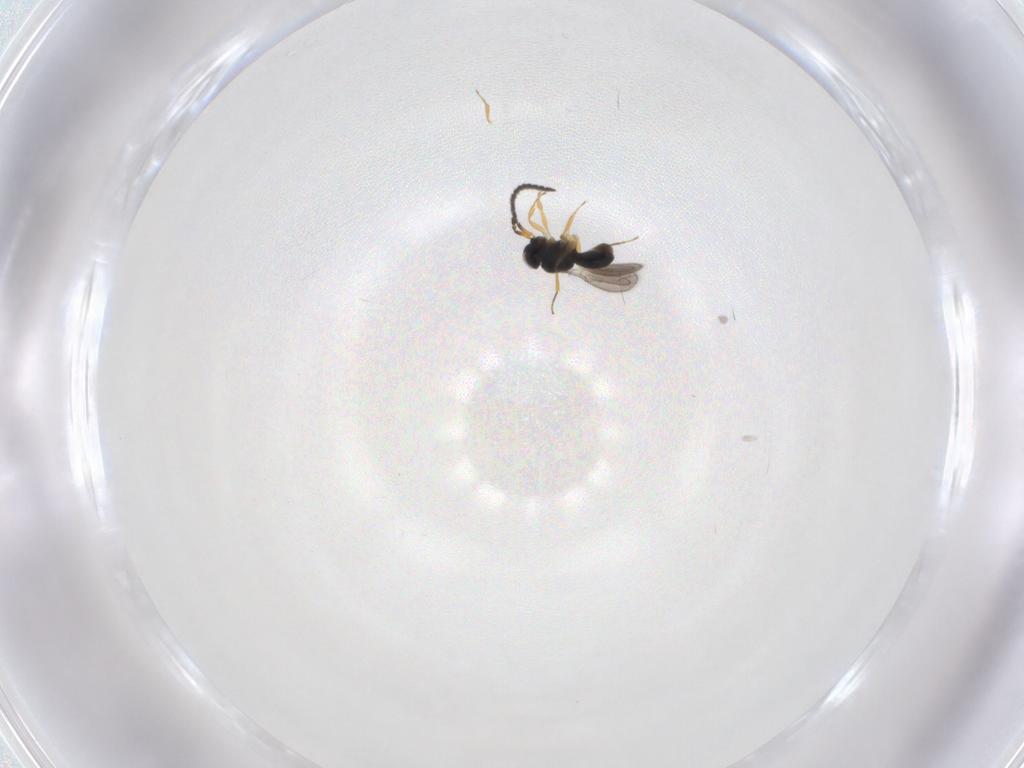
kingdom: Animalia
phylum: Arthropoda
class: Insecta
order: Hymenoptera
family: Scelionidae
